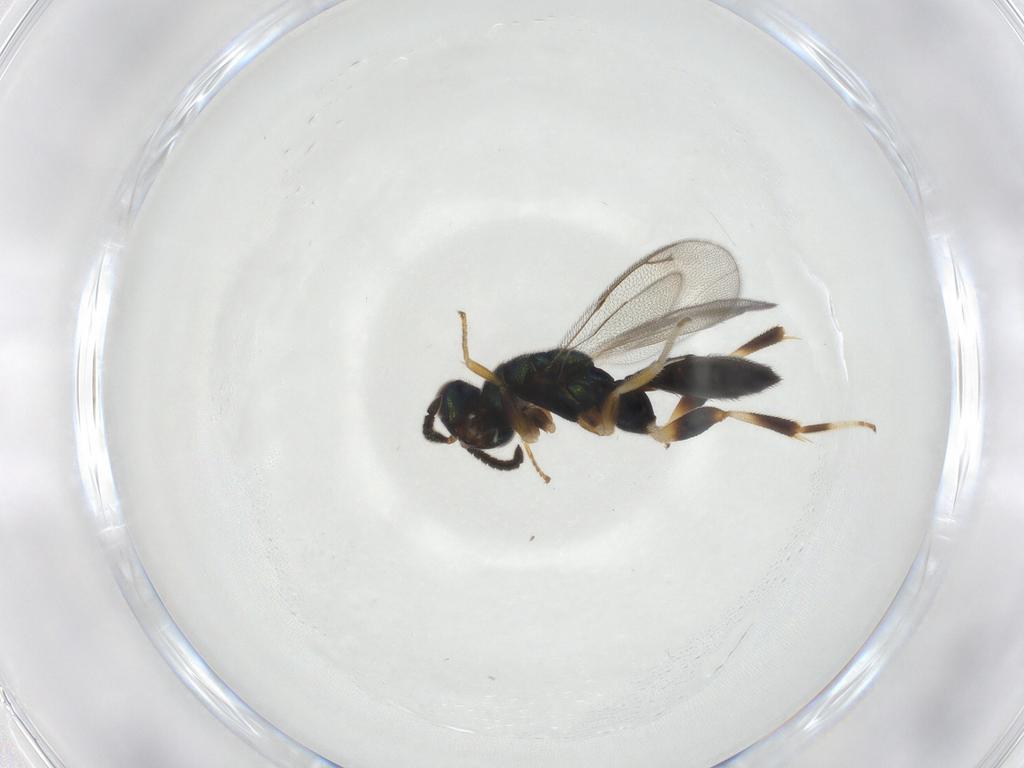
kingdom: Animalia
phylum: Arthropoda
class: Insecta
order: Hymenoptera
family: Cleonyminae
